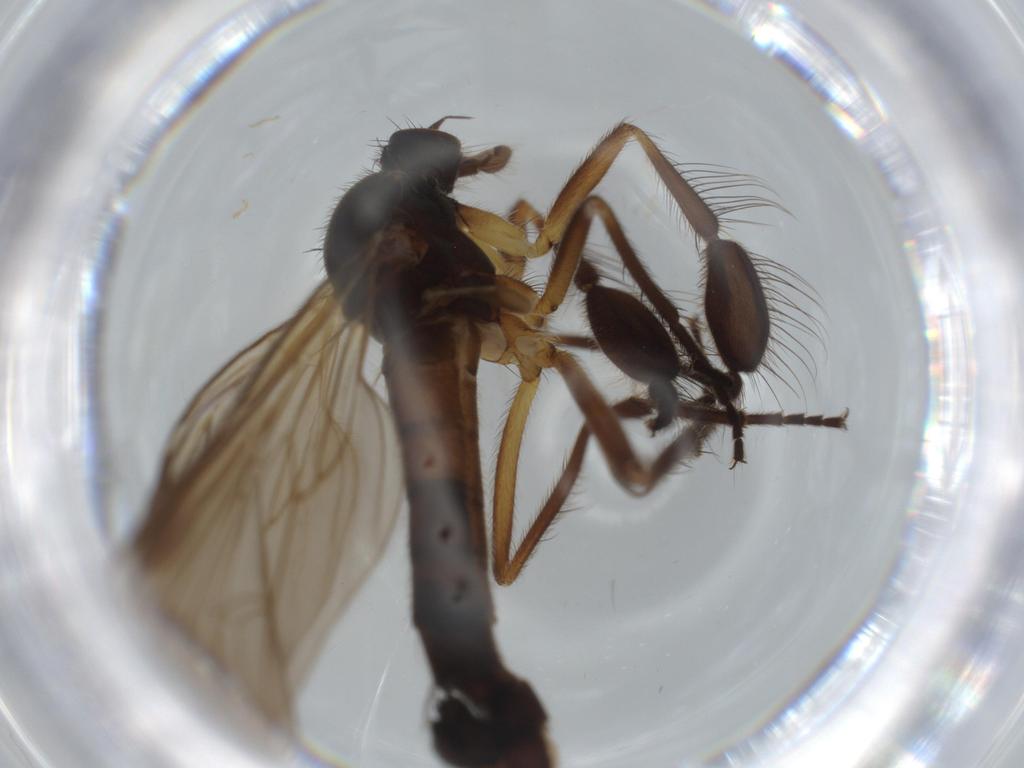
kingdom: Animalia
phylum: Arthropoda
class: Insecta
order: Diptera
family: Empididae
